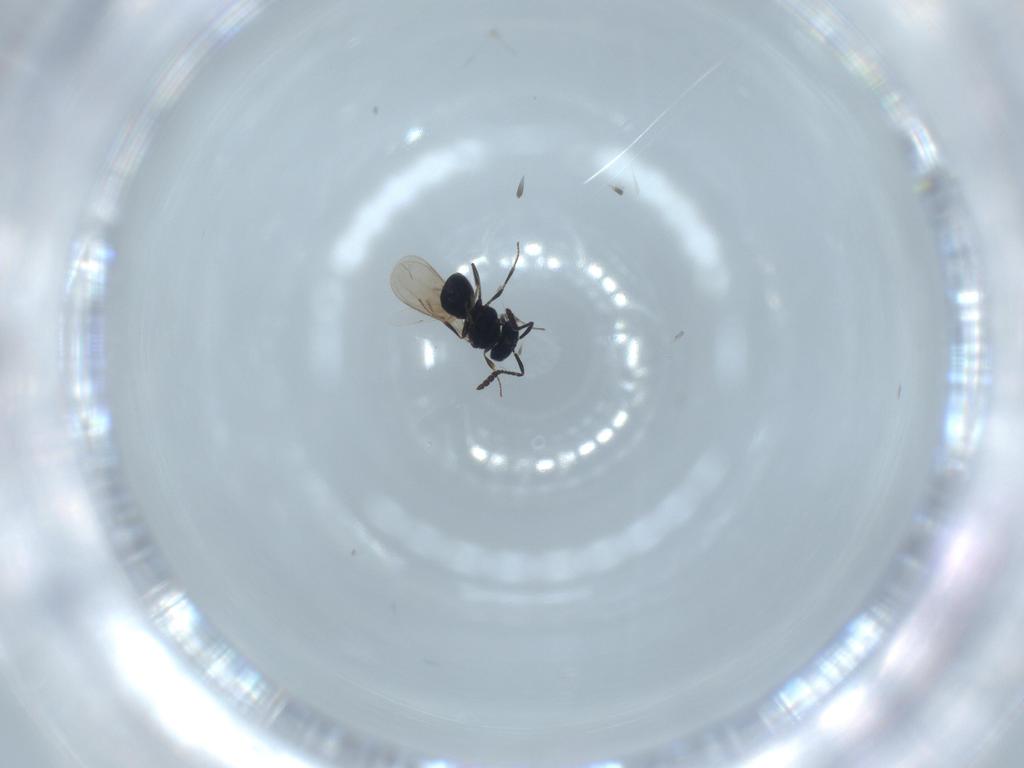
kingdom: Animalia
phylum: Arthropoda
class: Insecta
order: Hymenoptera
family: Scelionidae
